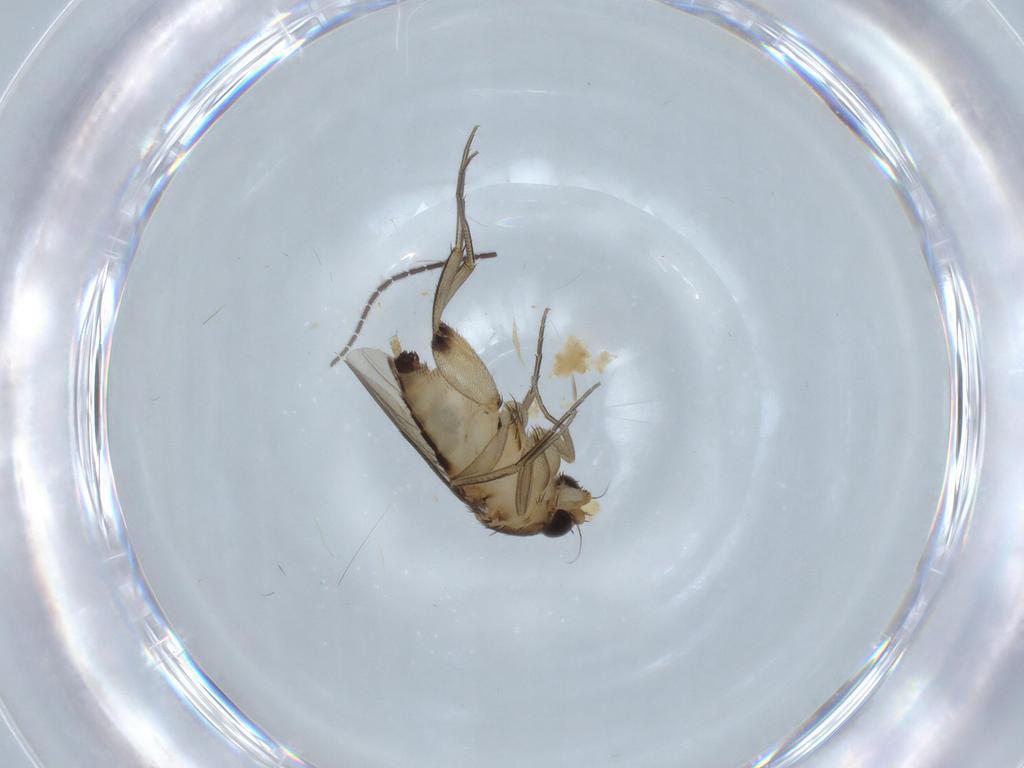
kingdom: Animalia
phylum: Arthropoda
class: Insecta
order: Diptera
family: Sciaridae
